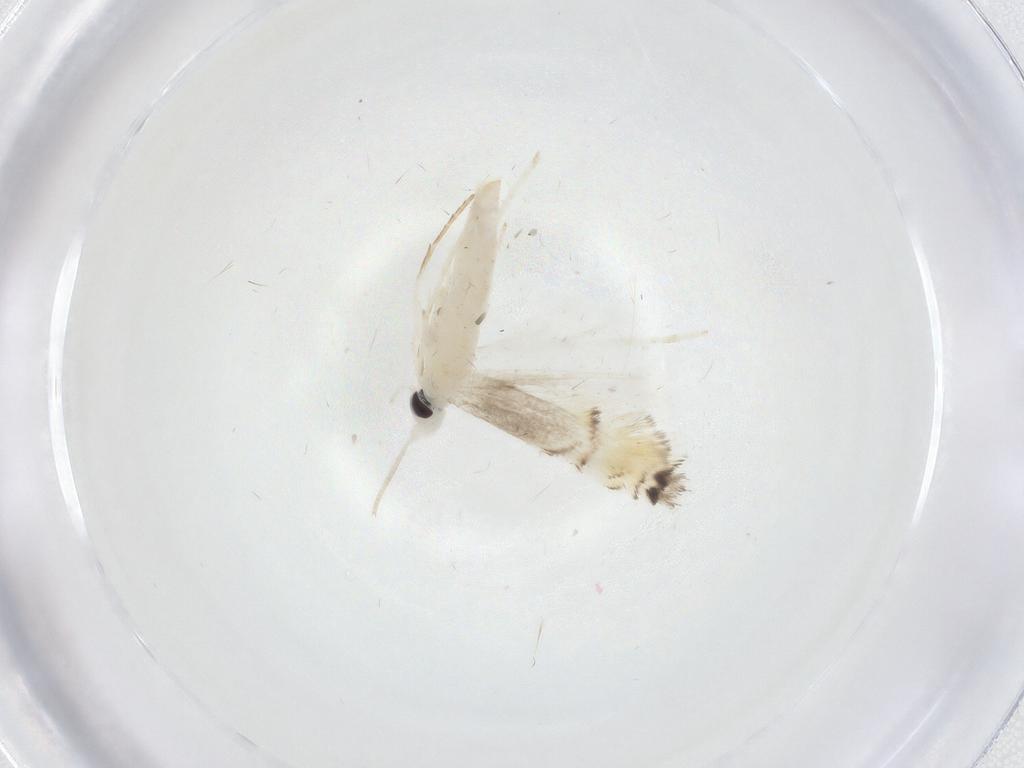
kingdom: Animalia
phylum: Arthropoda
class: Insecta
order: Lepidoptera
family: Gracillariidae
